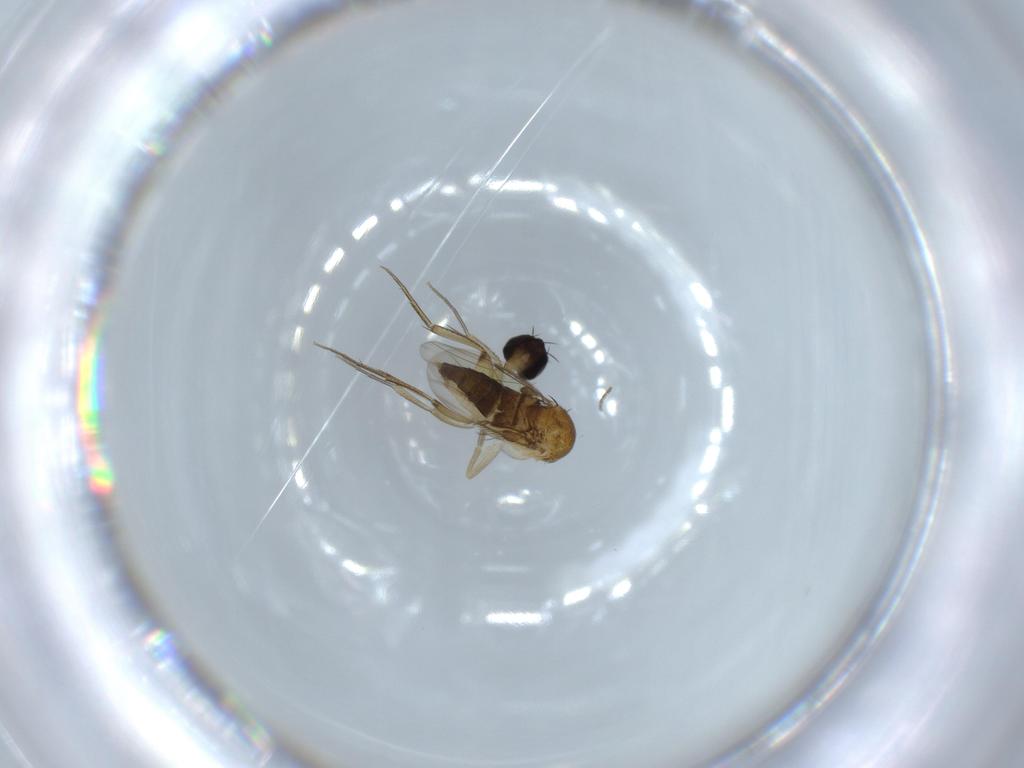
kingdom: Animalia
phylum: Arthropoda
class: Insecta
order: Diptera
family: Phoridae
